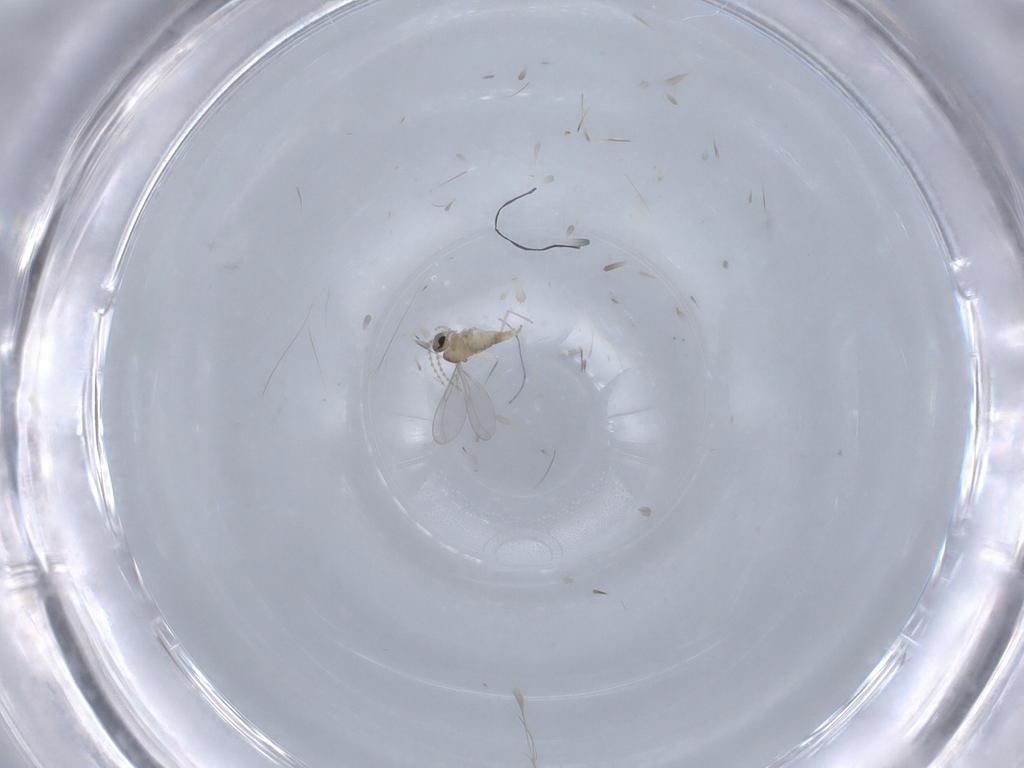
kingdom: Animalia
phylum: Arthropoda
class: Insecta
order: Diptera
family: Cecidomyiidae
